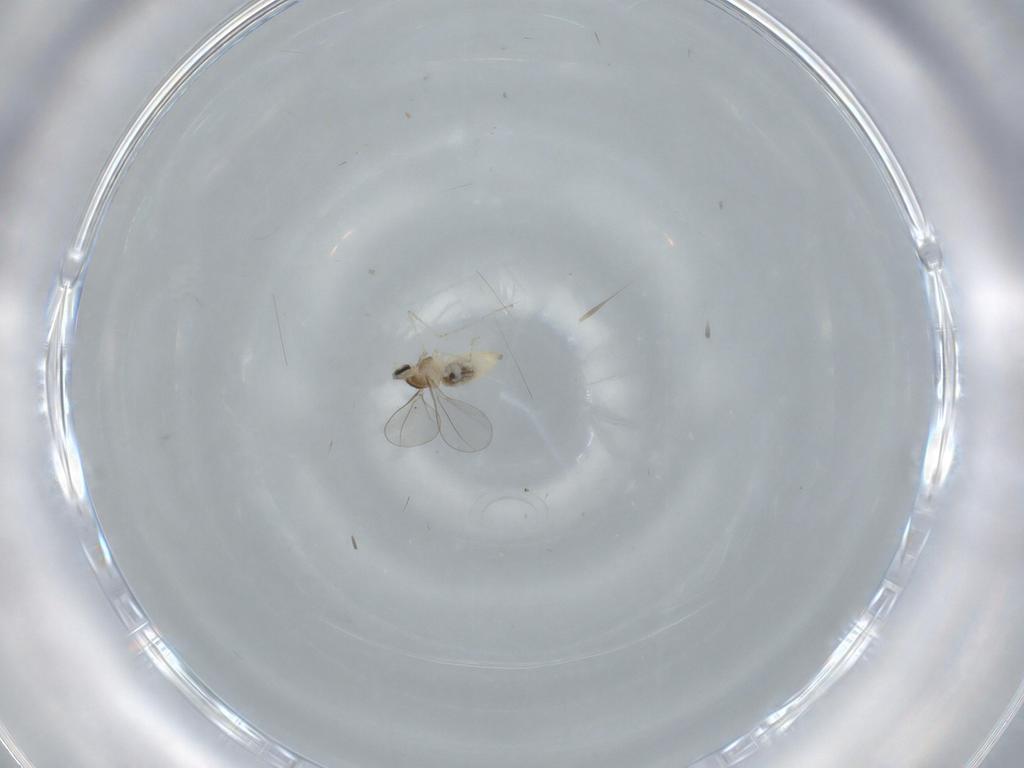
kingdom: Animalia
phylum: Arthropoda
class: Insecta
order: Diptera
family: Cecidomyiidae
